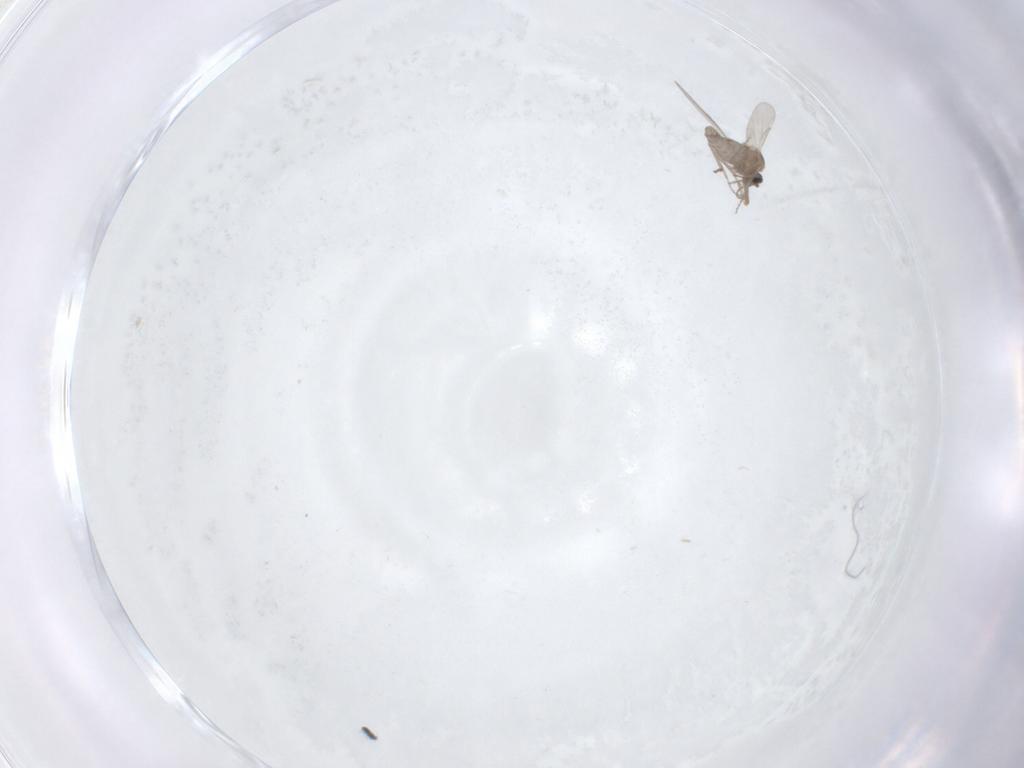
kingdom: Animalia
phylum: Arthropoda
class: Insecta
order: Diptera
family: Ceratopogonidae
